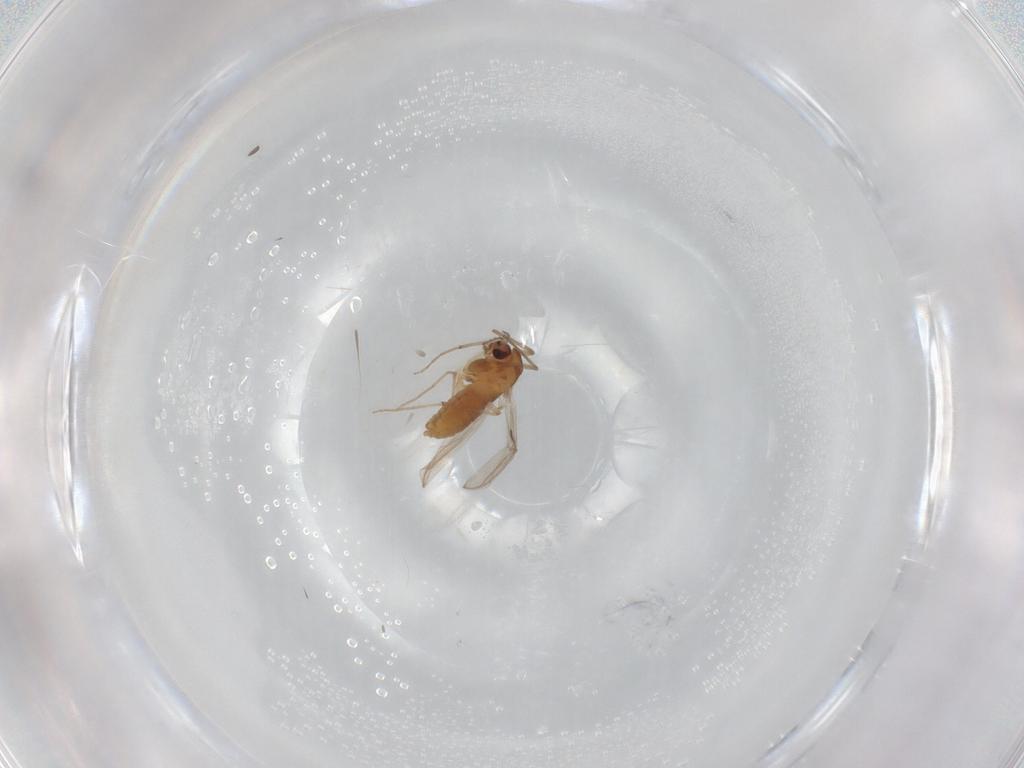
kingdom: Animalia
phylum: Arthropoda
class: Insecta
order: Diptera
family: Chironomidae
